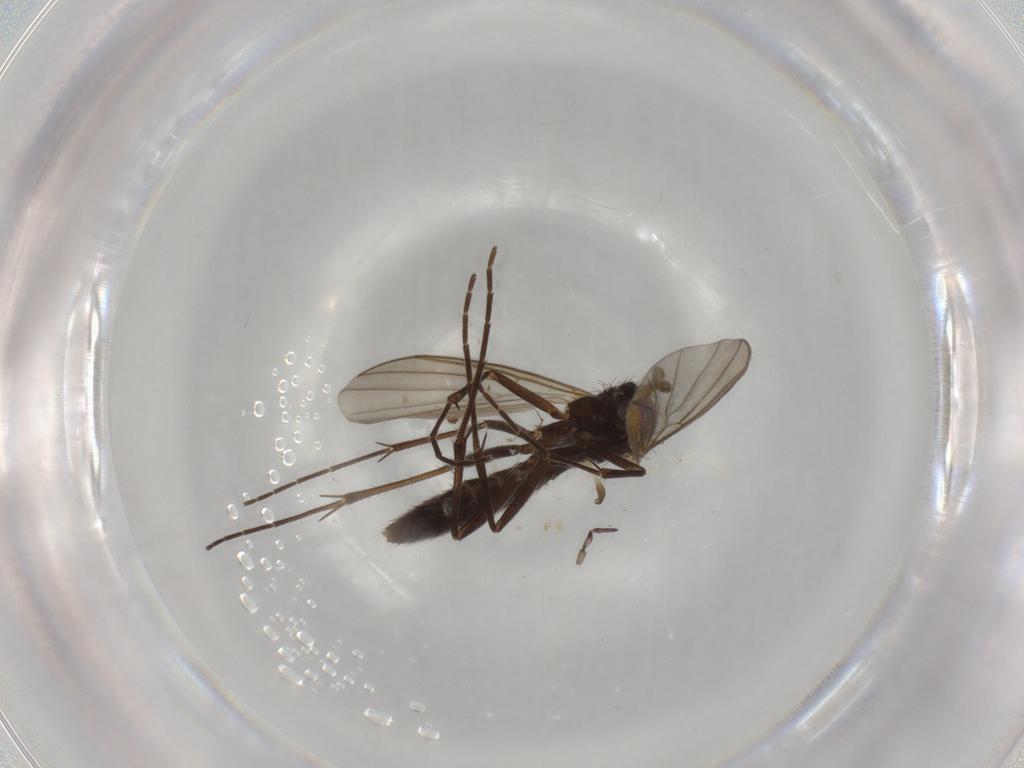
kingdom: Animalia
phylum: Arthropoda
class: Insecta
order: Diptera
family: Mycetophilidae
